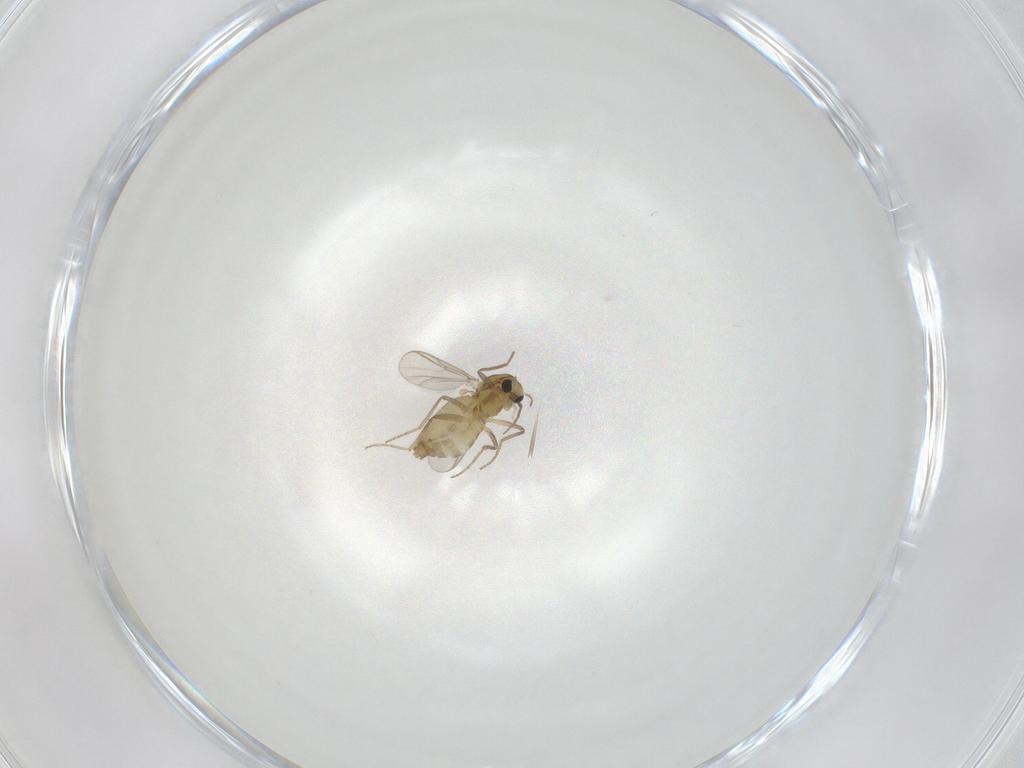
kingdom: Animalia
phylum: Arthropoda
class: Insecta
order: Diptera
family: Chironomidae
